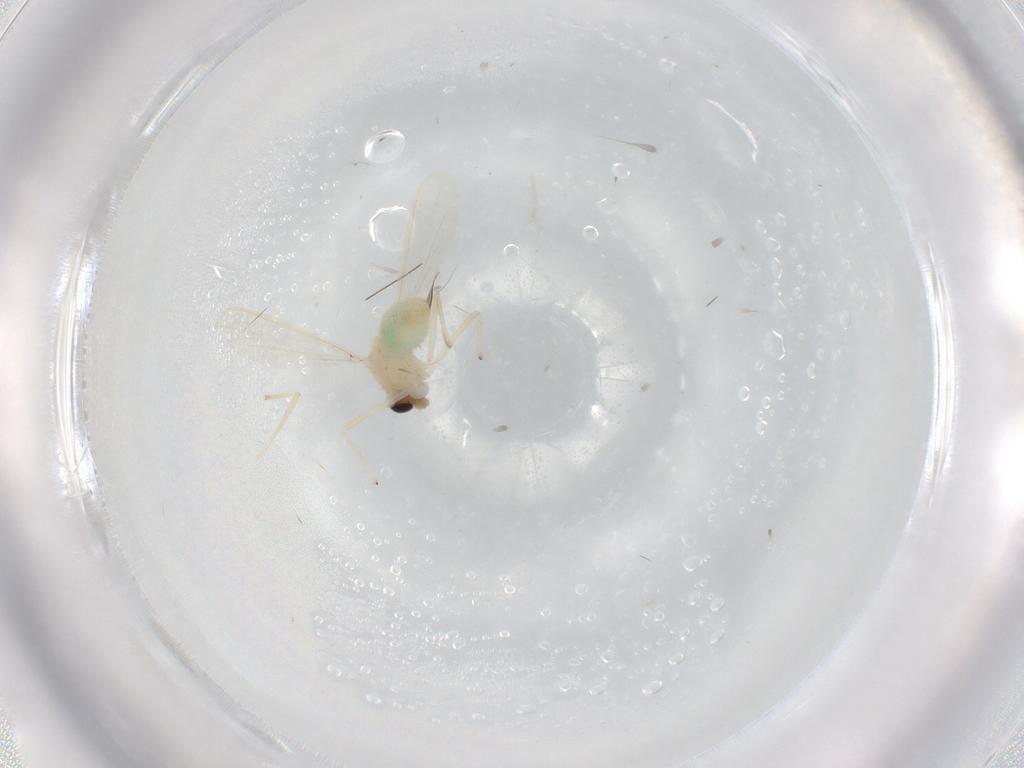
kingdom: Animalia
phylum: Arthropoda
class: Insecta
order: Diptera
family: Chironomidae
